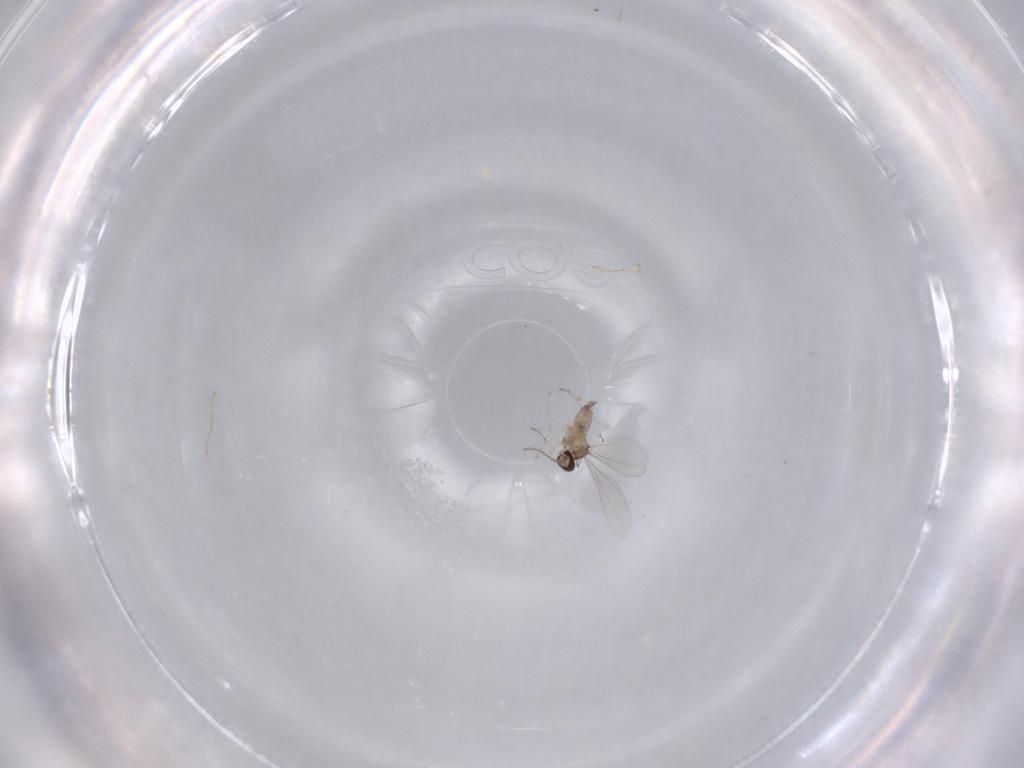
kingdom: Animalia
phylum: Arthropoda
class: Insecta
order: Diptera
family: Cecidomyiidae
